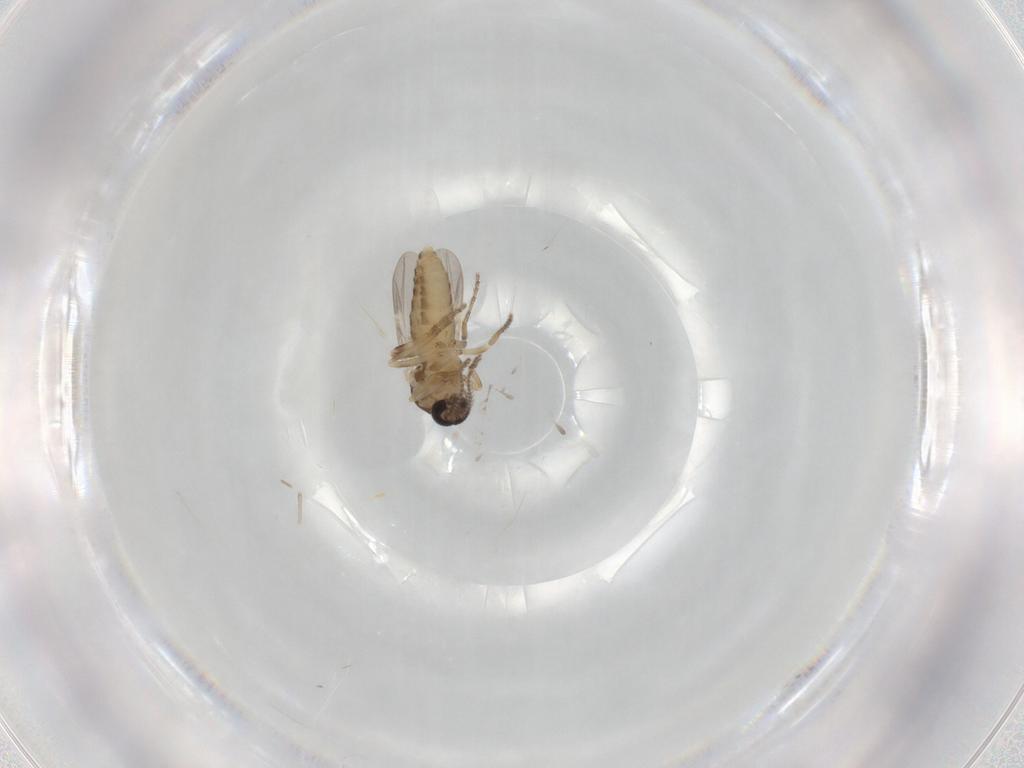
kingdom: Animalia
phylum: Arthropoda
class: Insecta
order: Diptera
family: Ceratopogonidae
